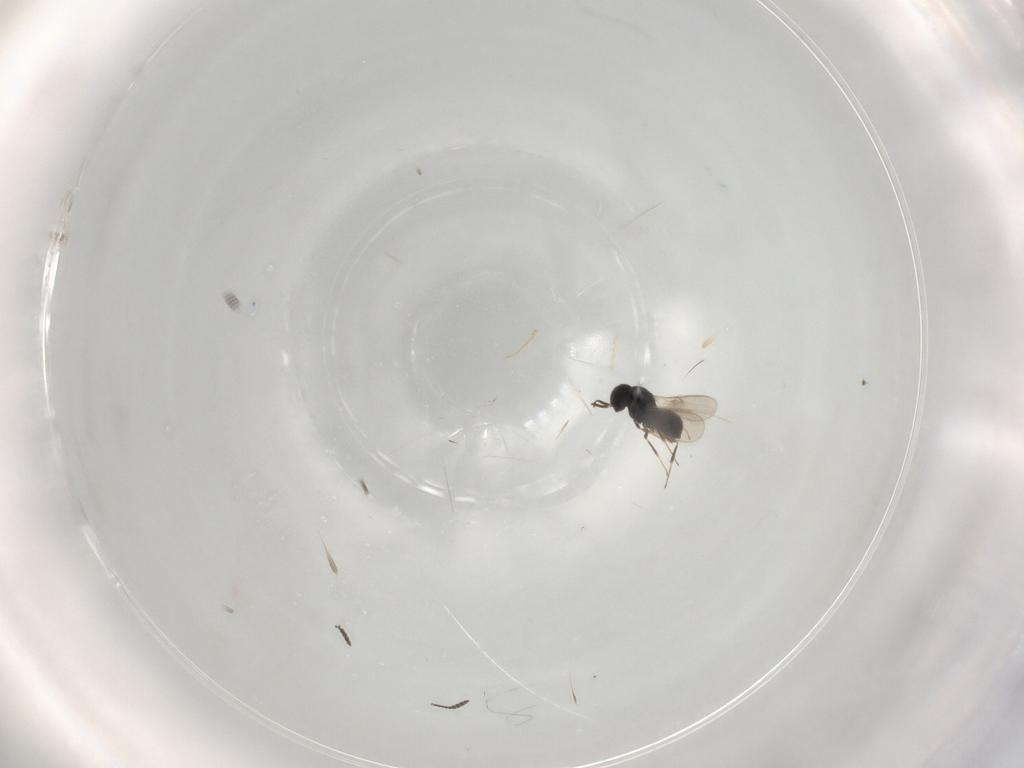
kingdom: Animalia
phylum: Arthropoda
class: Insecta
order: Hymenoptera
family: Scelionidae
